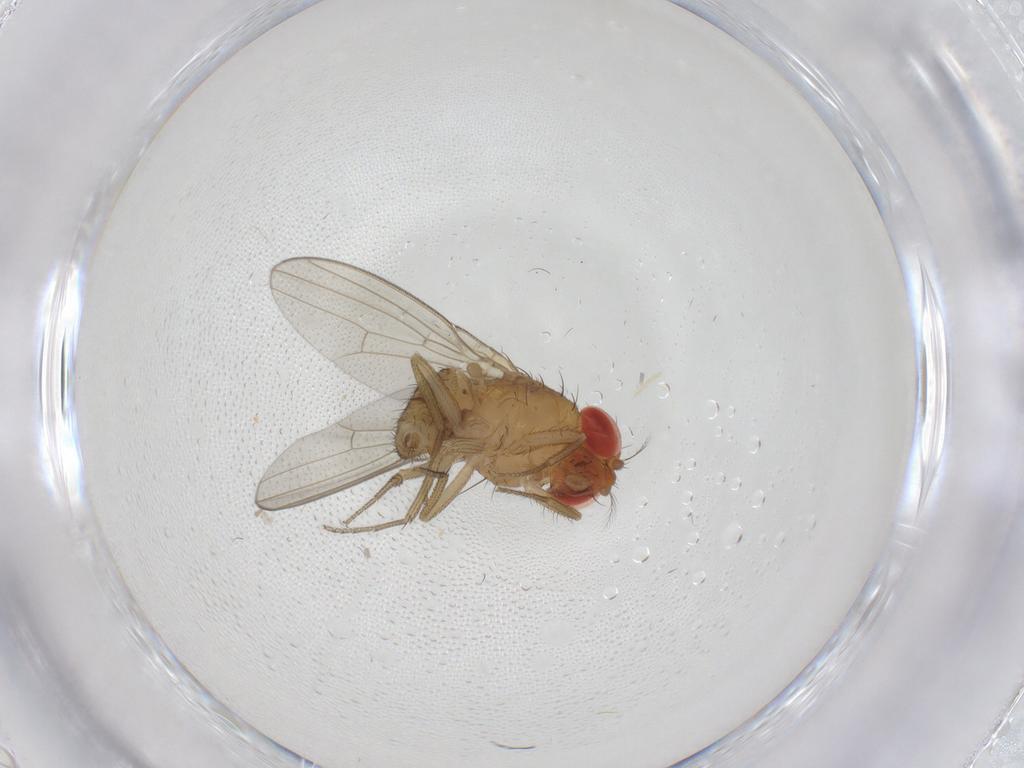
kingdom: Animalia
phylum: Arthropoda
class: Insecta
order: Diptera
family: Drosophilidae
